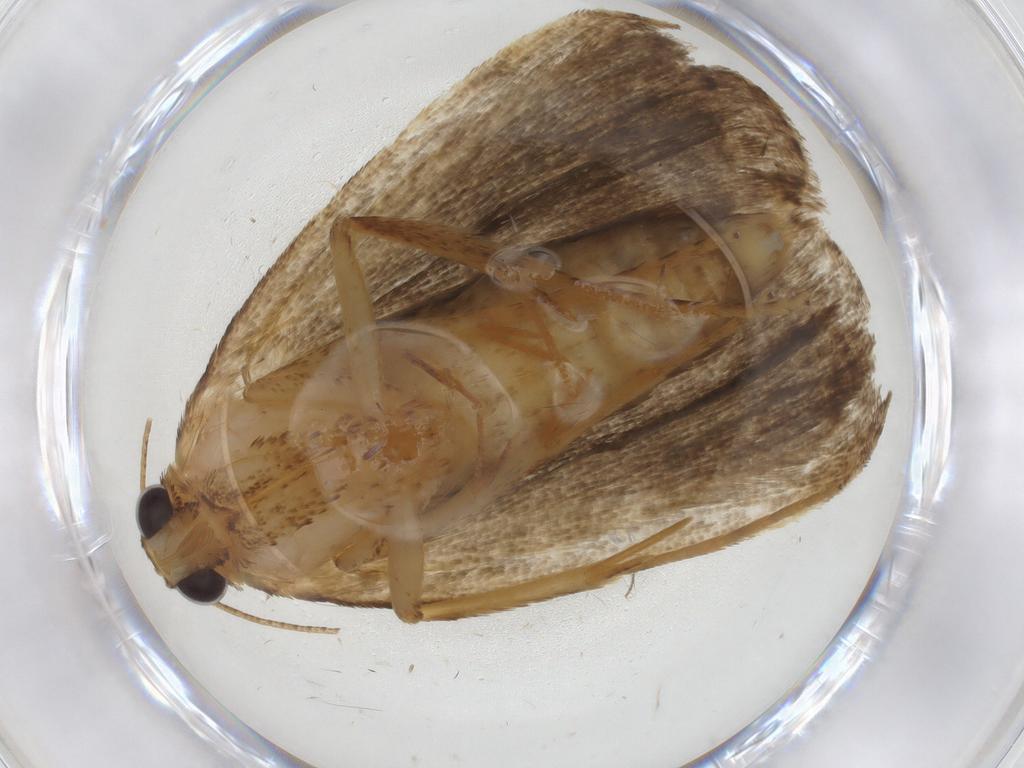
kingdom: Animalia
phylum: Arthropoda
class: Insecta
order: Lepidoptera
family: Erebidae
